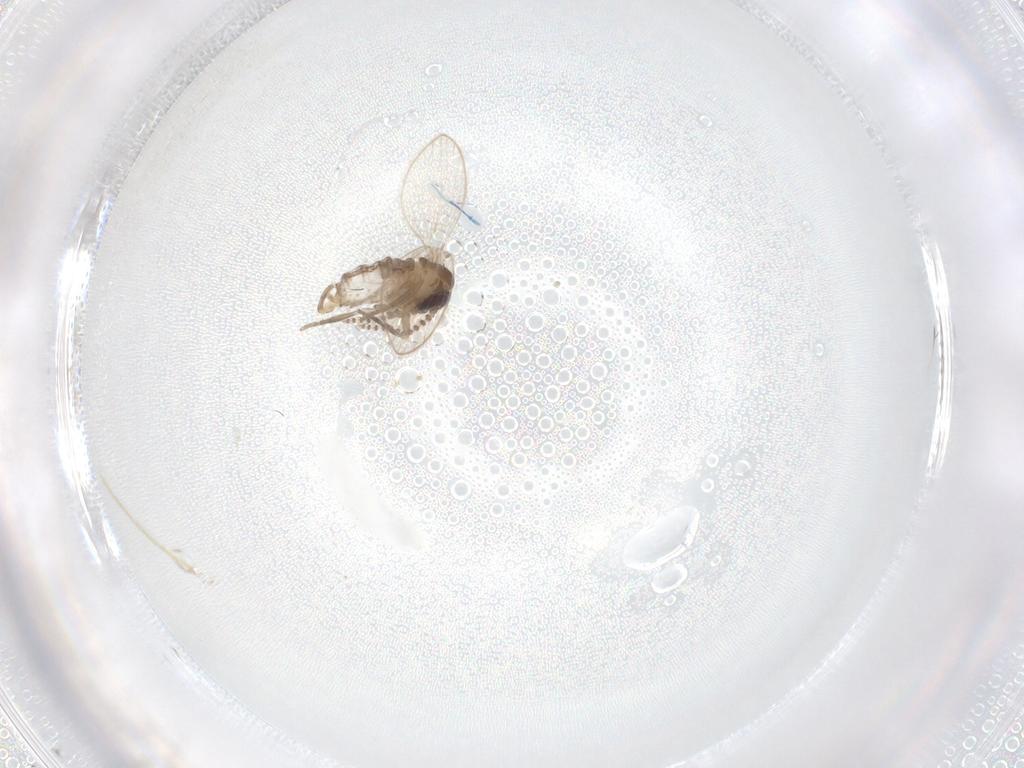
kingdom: Animalia
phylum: Arthropoda
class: Insecta
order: Diptera
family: Psychodidae
